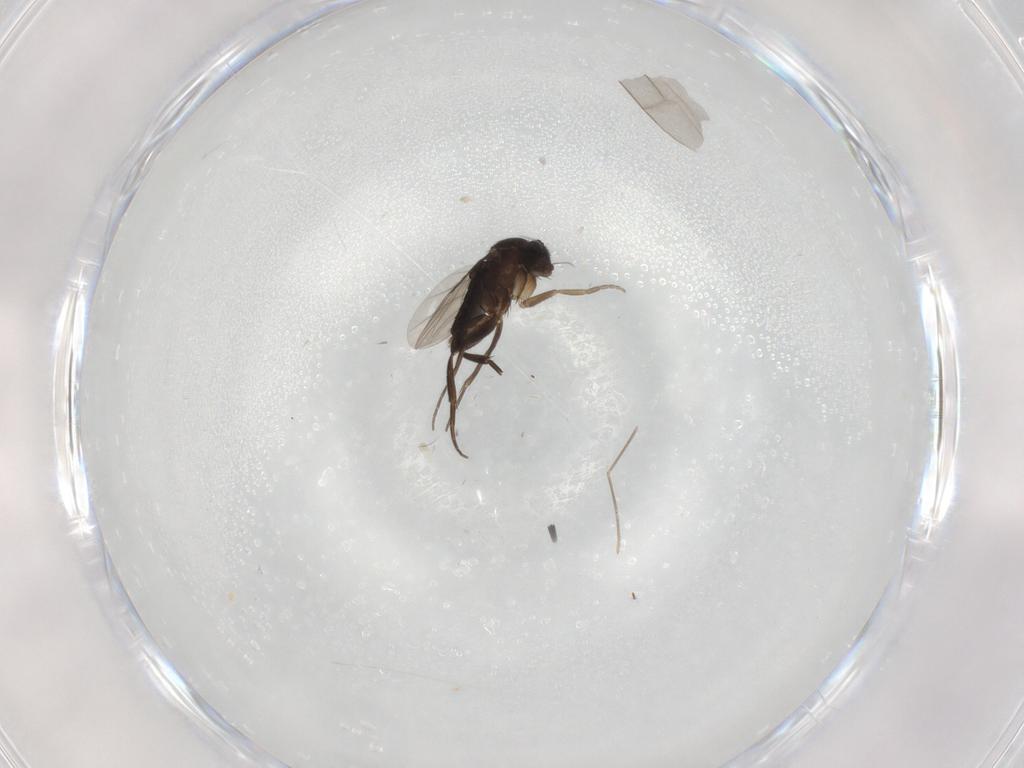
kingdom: Animalia
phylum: Arthropoda
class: Insecta
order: Diptera
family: Phoridae
